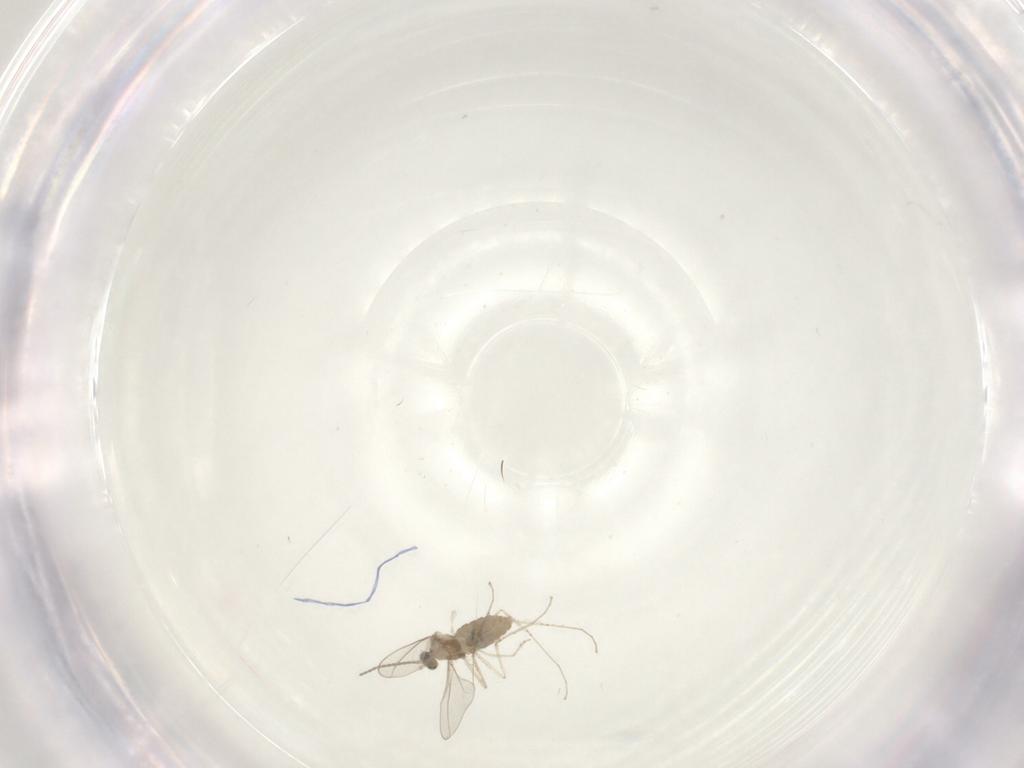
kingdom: Animalia
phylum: Arthropoda
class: Insecta
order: Diptera
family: Cecidomyiidae
